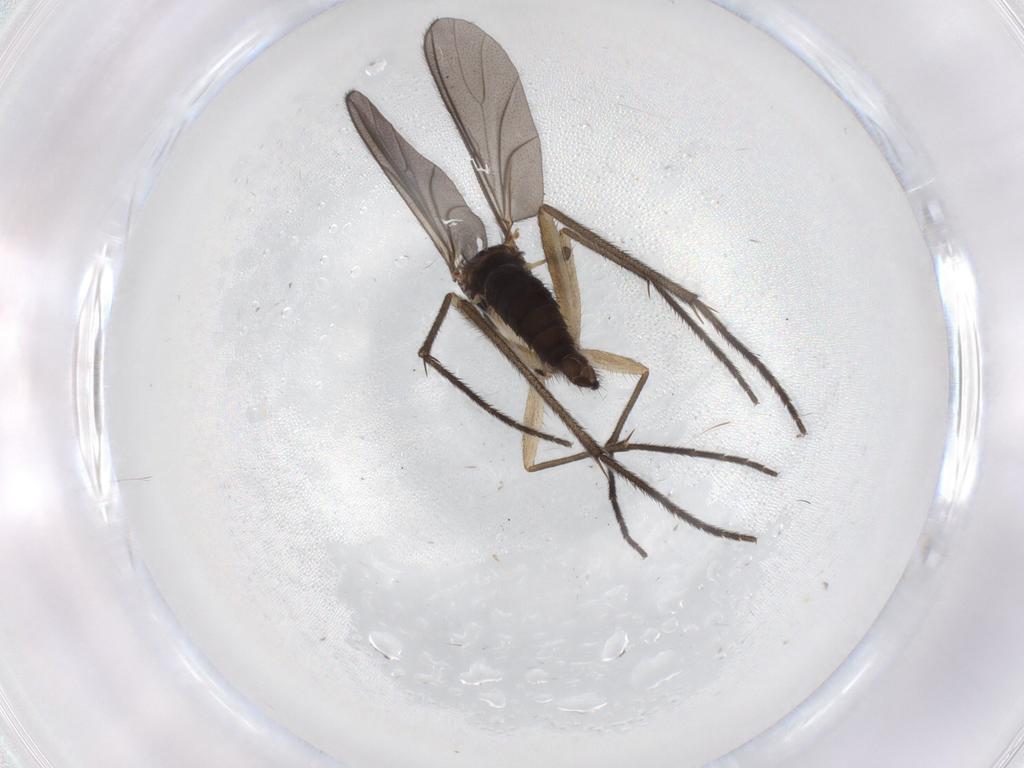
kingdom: Animalia
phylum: Arthropoda
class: Insecta
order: Diptera
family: Sciaridae
